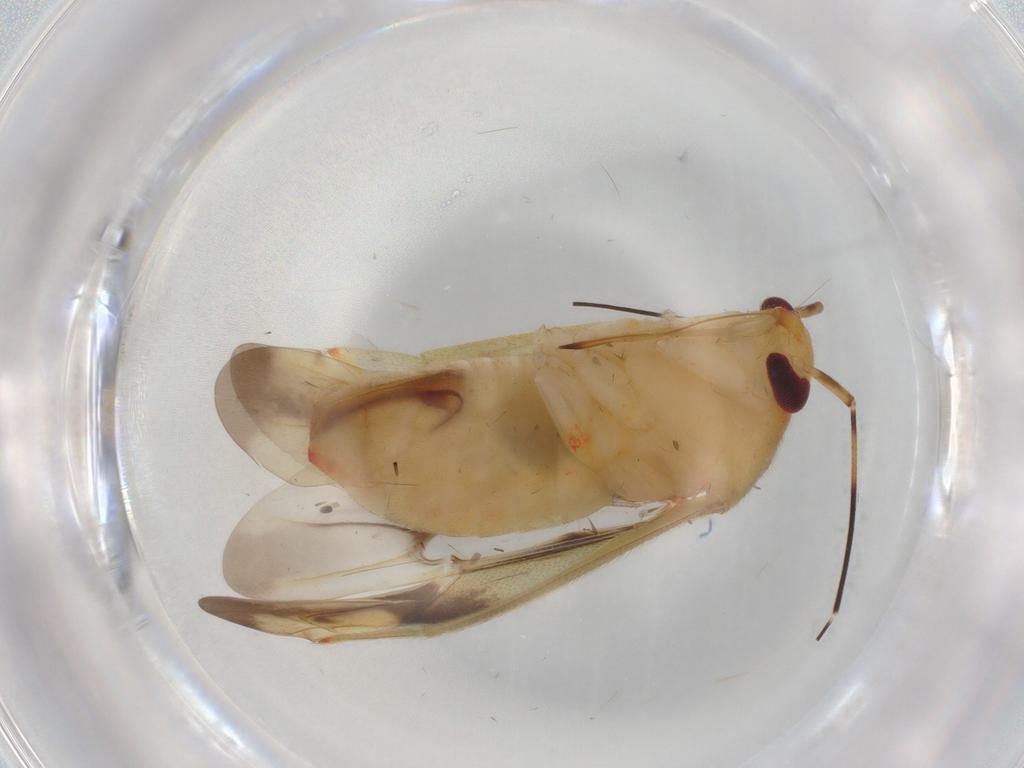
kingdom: Animalia
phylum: Arthropoda
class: Insecta
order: Hemiptera
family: Miridae
